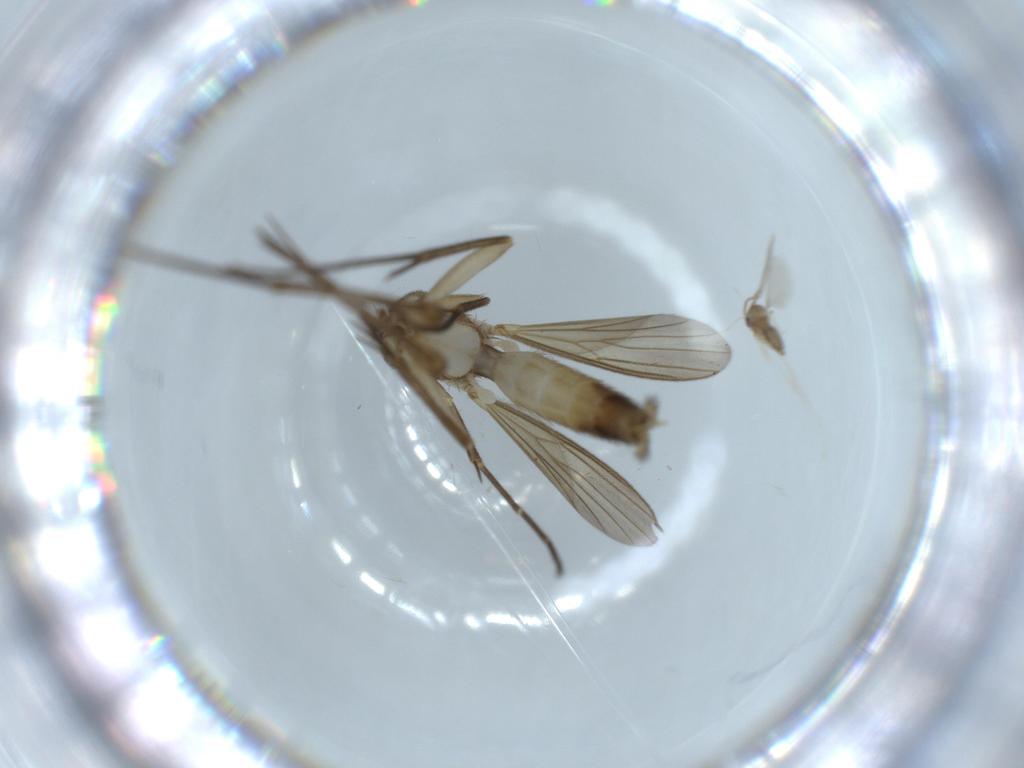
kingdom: Animalia
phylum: Arthropoda
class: Insecta
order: Diptera
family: Mycetophilidae
